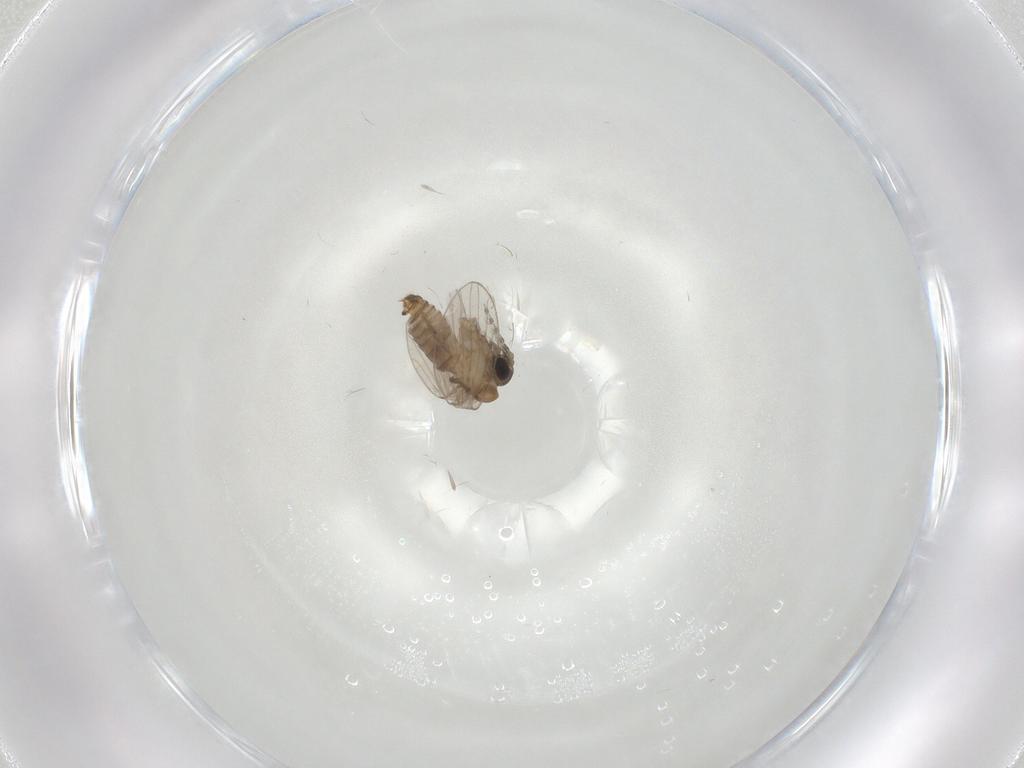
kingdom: Animalia
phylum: Arthropoda
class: Insecta
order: Diptera
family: Psychodidae
